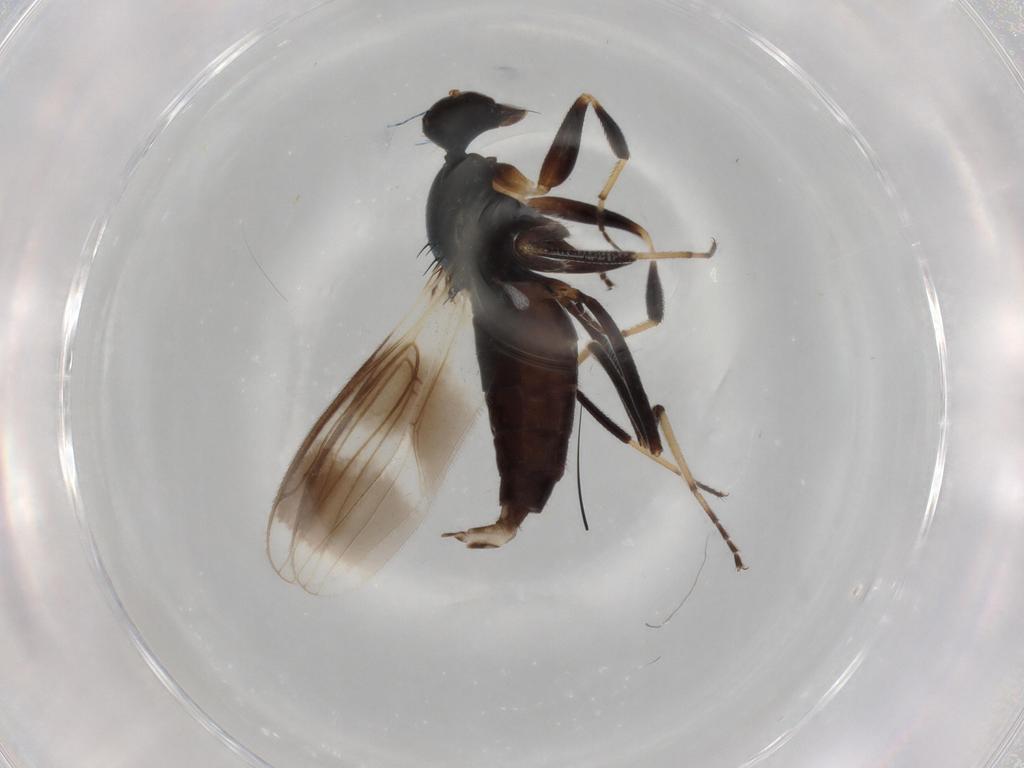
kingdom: Animalia
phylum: Arthropoda
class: Insecta
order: Diptera
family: Hybotidae
